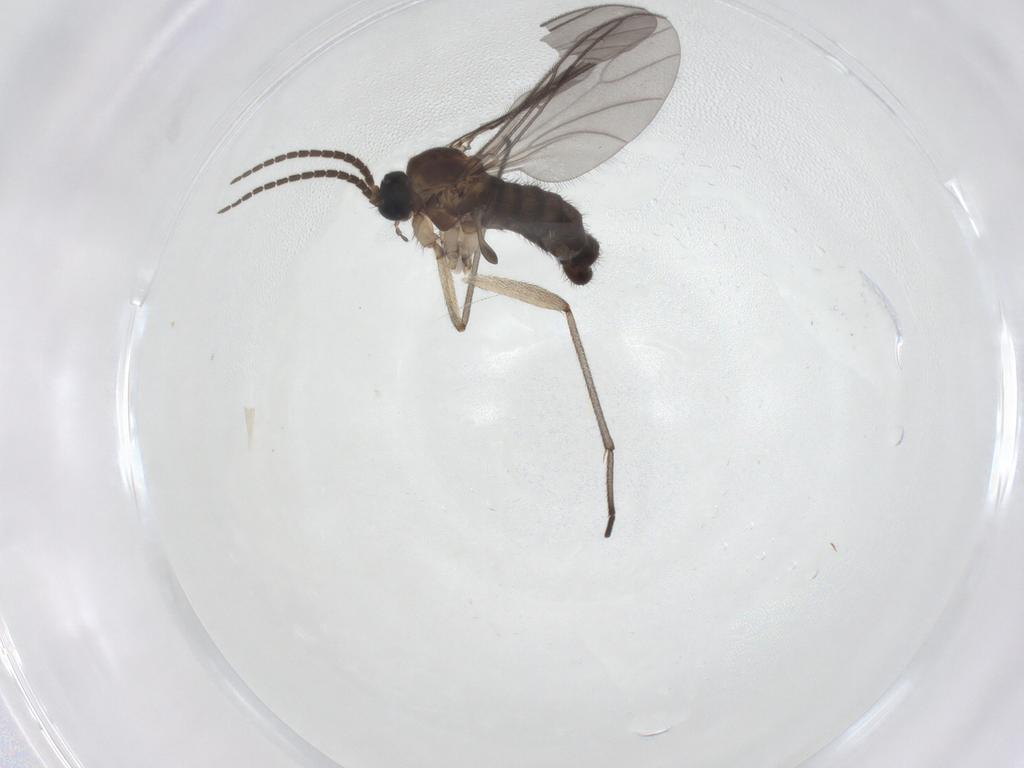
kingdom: Animalia
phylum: Arthropoda
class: Insecta
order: Diptera
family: Sciaridae
